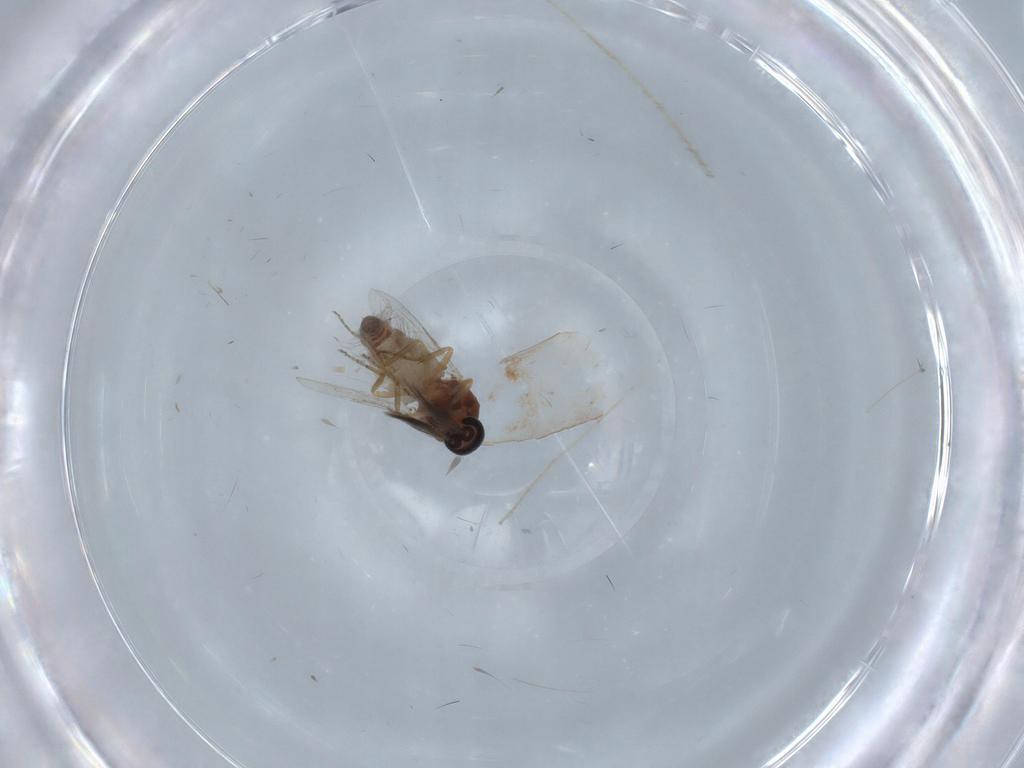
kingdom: Animalia
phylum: Arthropoda
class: Insecta
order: Diptera
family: Ceratopogonidae
